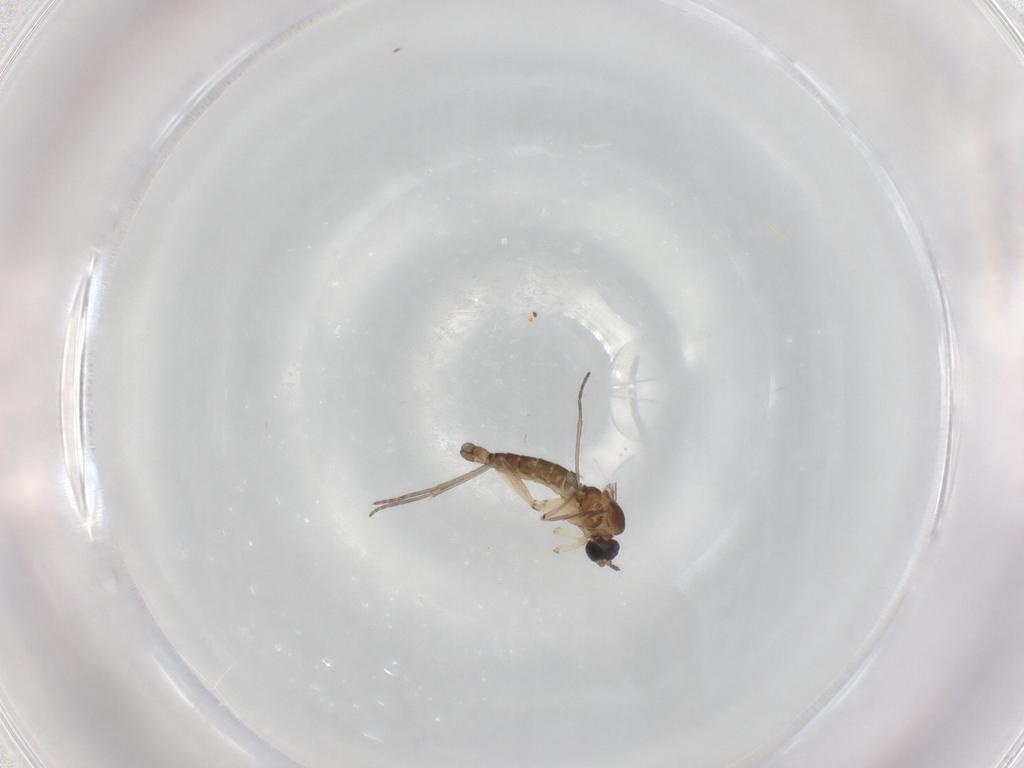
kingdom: Animalia
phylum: Arthropoda
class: Insecta
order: Diptera
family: Sciaridae
